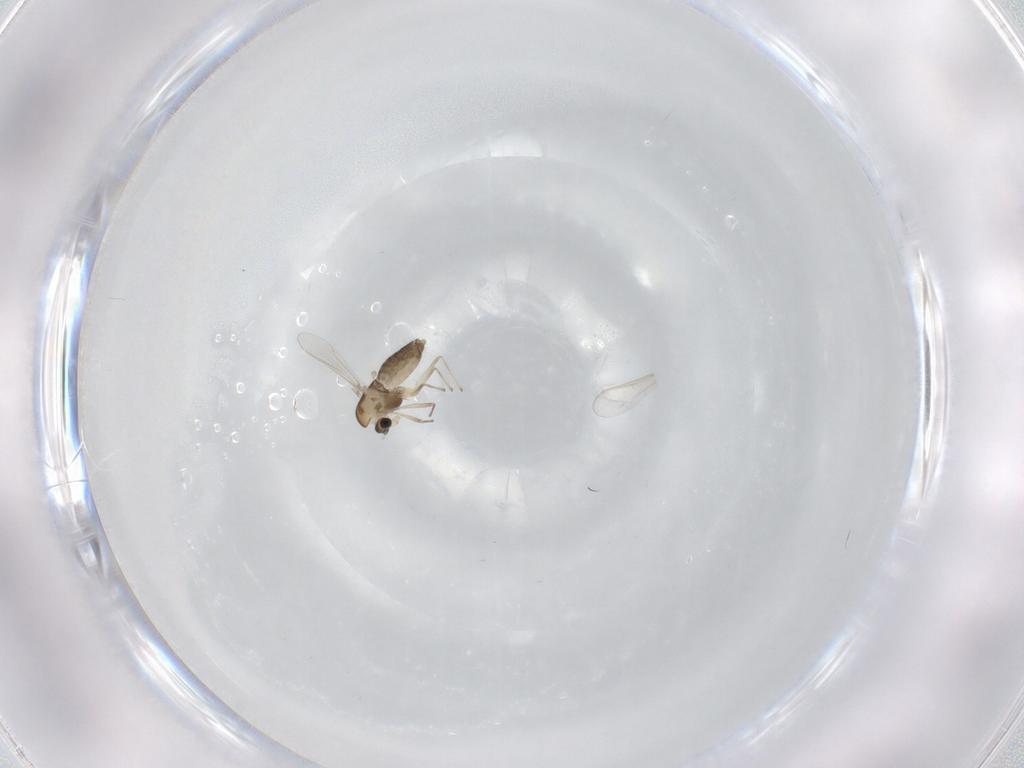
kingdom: Animalia
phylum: Arthropoda
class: Insecta
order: Diptera
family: Chironomidae
